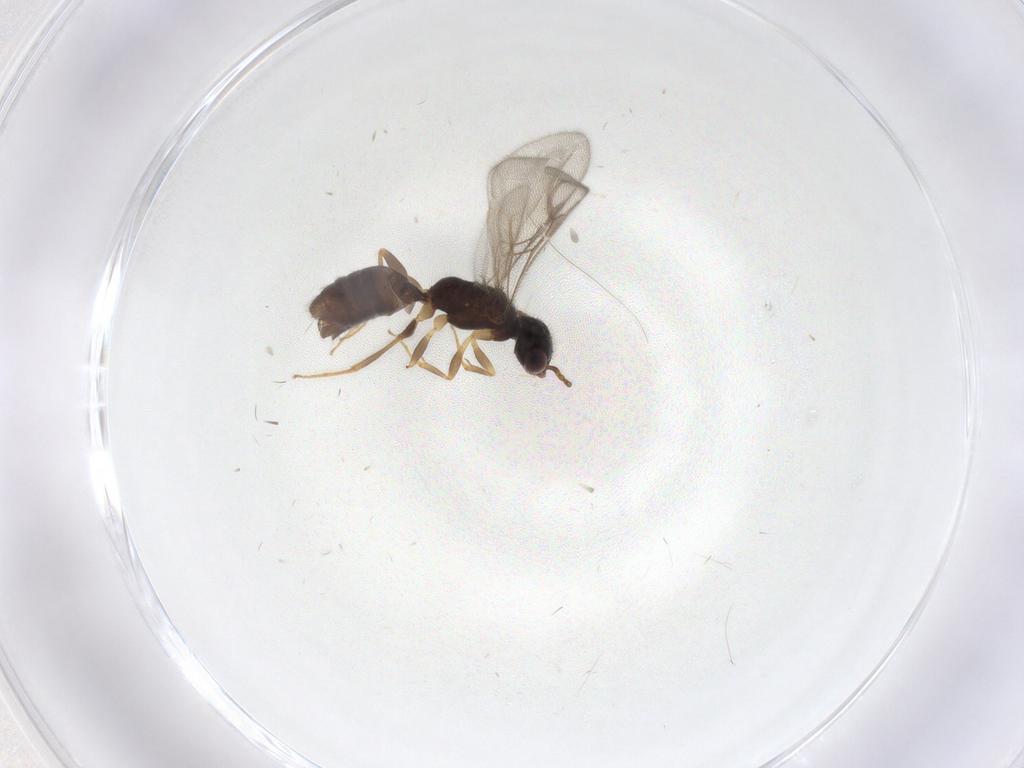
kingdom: Animalia
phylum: Arthropoda
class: Insecta
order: Hymenoptera
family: Bethylidae
